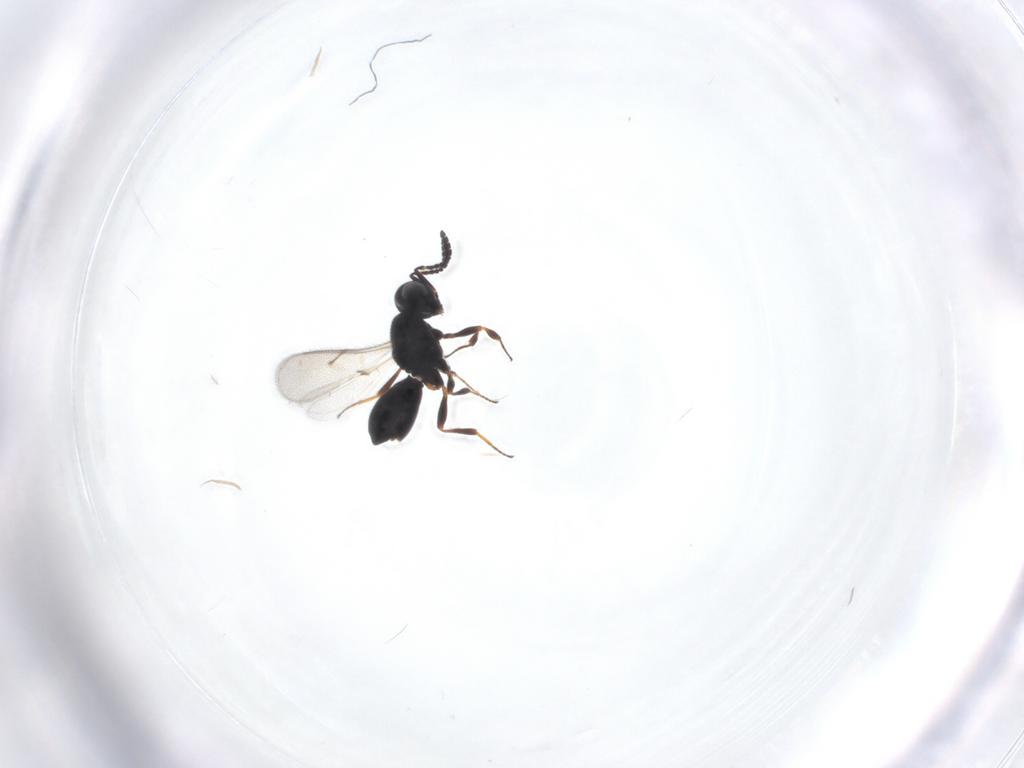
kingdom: Animalia
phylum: Arthropoda
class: Insecta
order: Hymenoptera
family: Scelionidae
